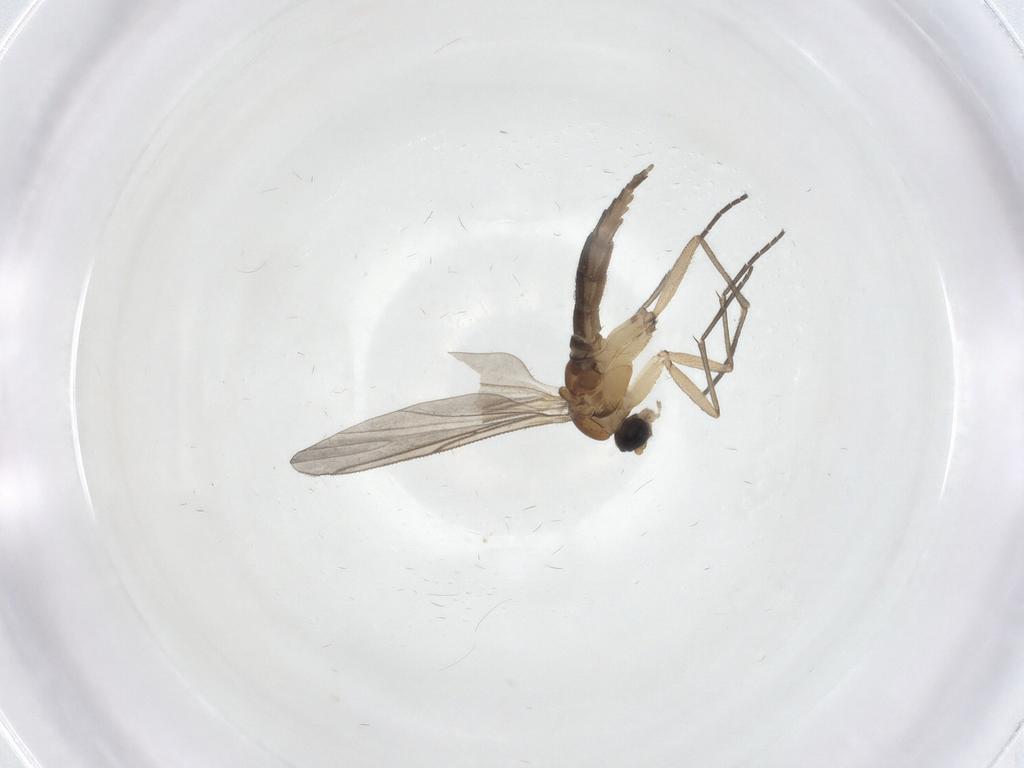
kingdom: Animalia
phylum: Arthropoda
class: Insecta
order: Diptera
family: Sciaridae
